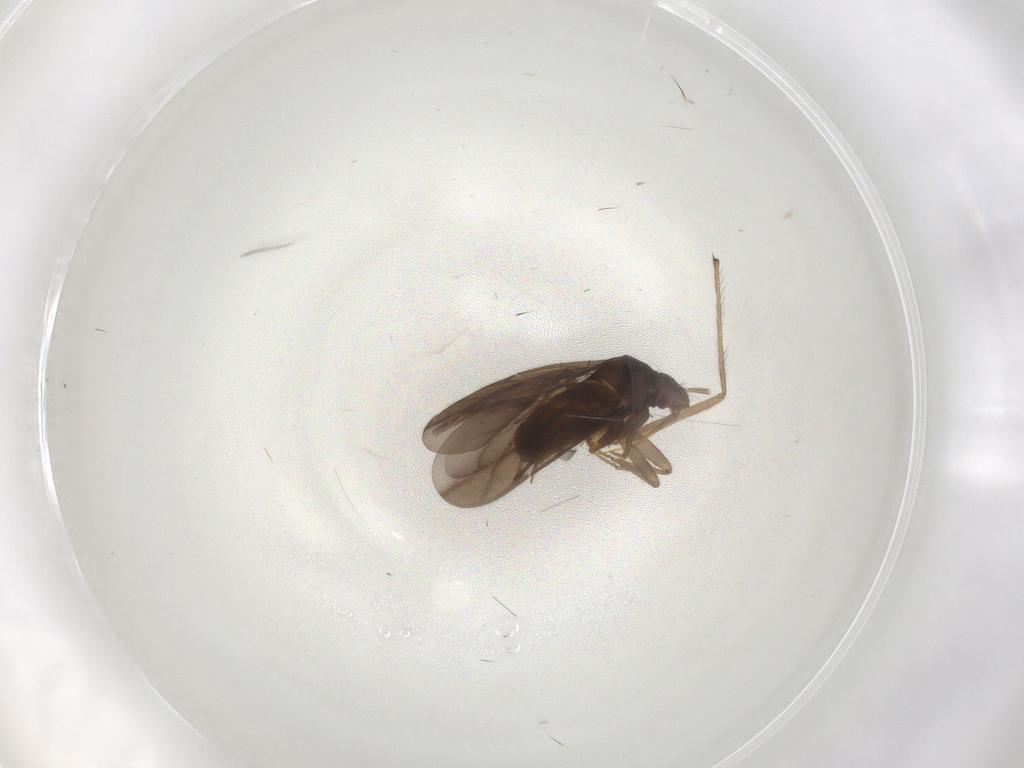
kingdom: Animalia
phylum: Arthropoda
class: Insecta
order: Hemiptera
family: Ceratocombidae
